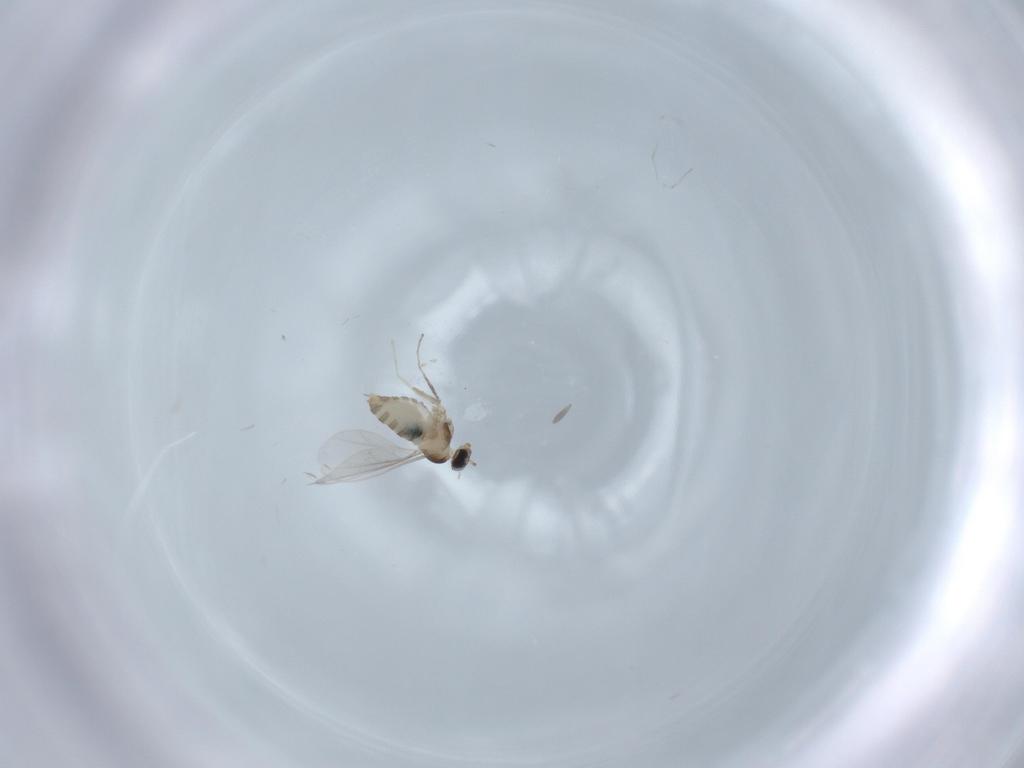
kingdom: Animalia
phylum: Arthropoda
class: Insecta
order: Diptera
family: Cecidomyiidae
